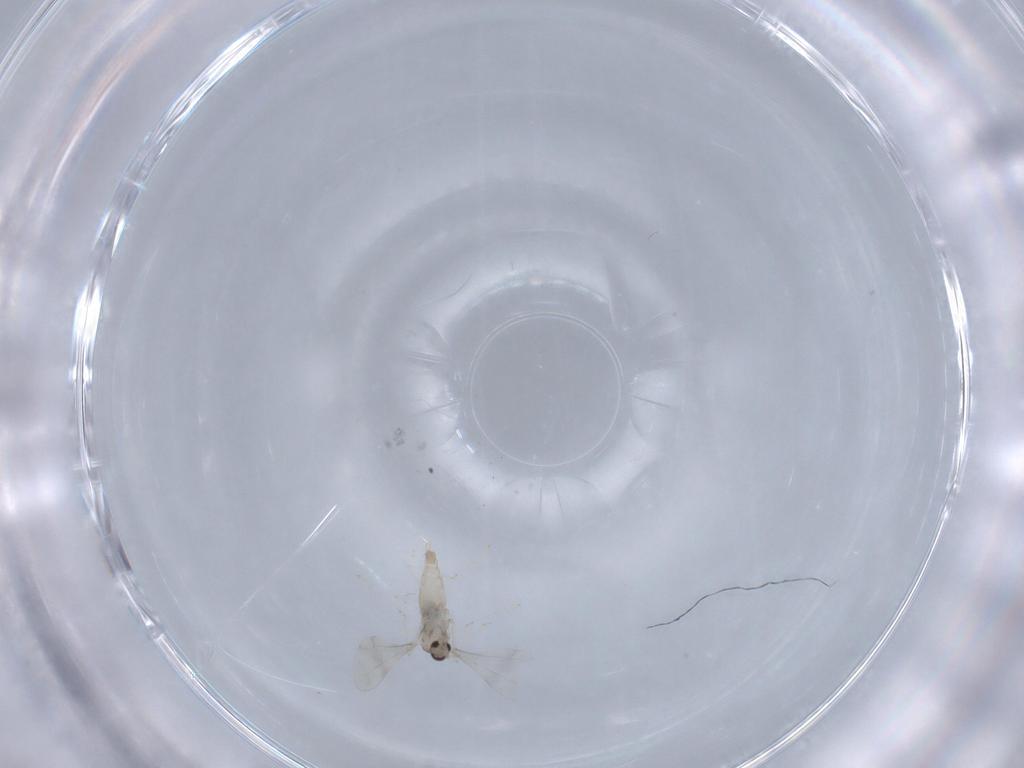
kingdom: Animalia
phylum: Arthropoda
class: Insecta
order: Diptera
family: Cecidomyiidae
